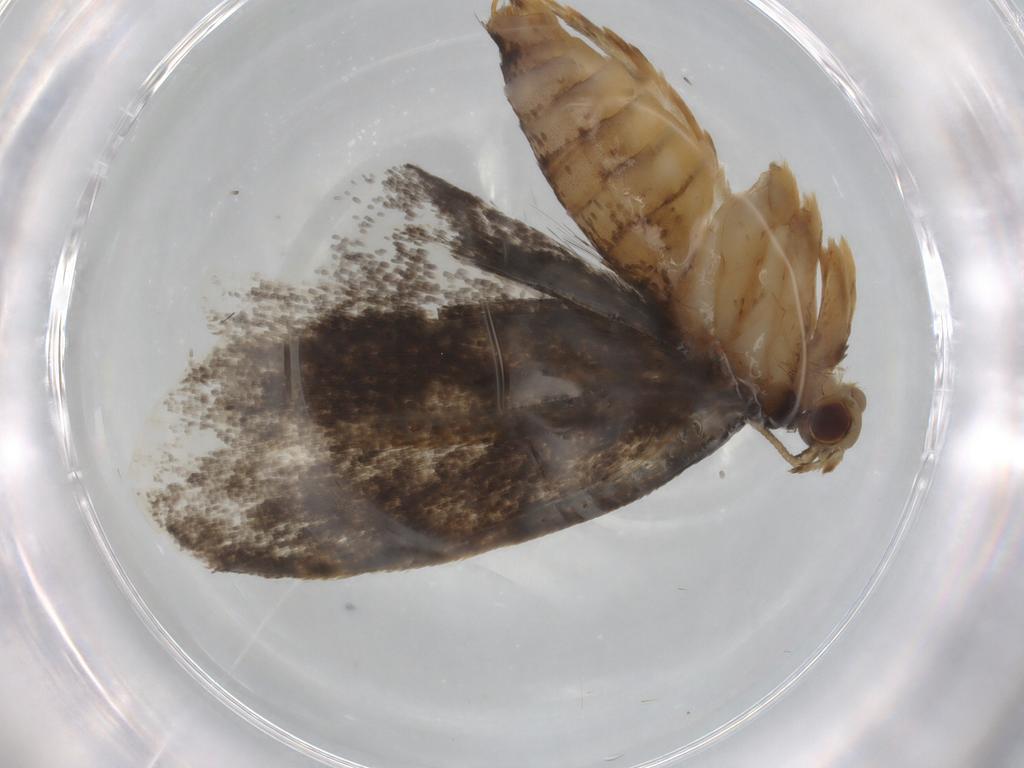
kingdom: Animalia
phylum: Arthropoda
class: Insecta
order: Lepidoptera
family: Tineidae
